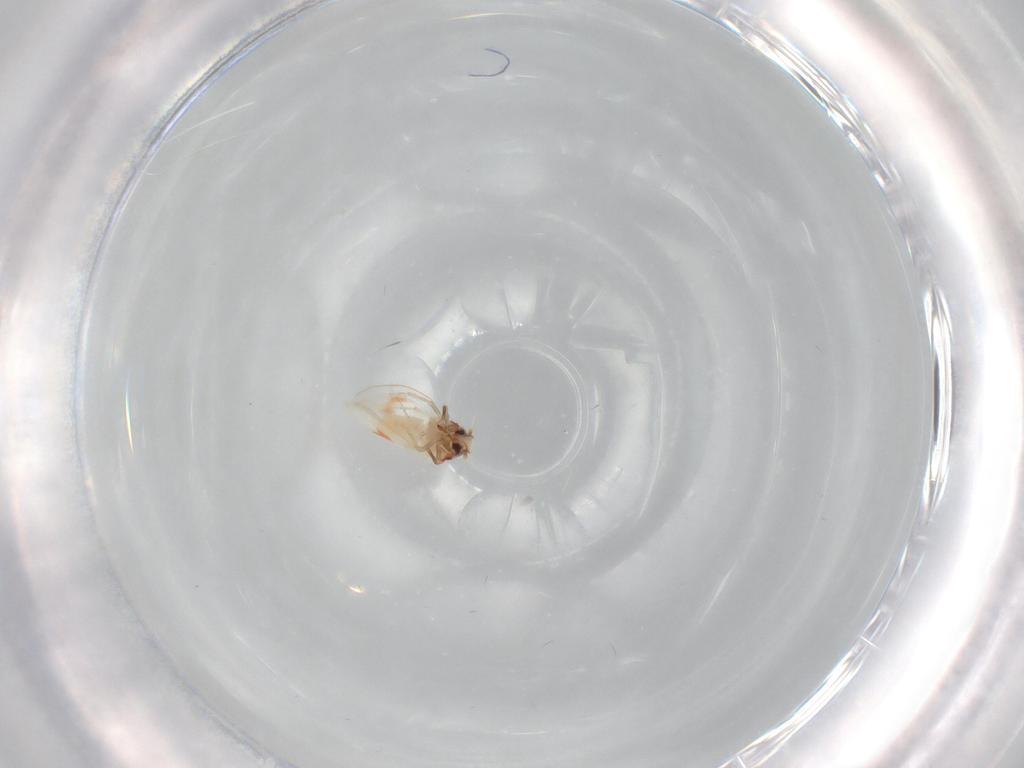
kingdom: Animalia
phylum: Arthropoda
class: Insecta
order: Hemiptera
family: Aleyrodidae
